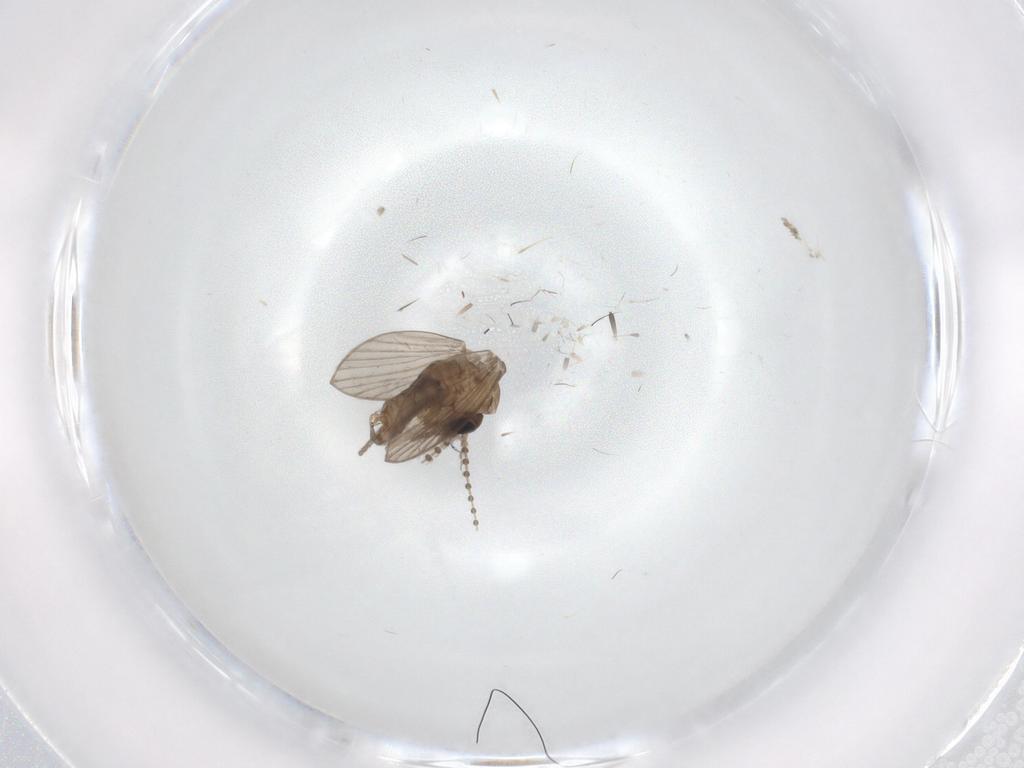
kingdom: Animalia
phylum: Arthropoda
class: Insecta
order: Diptera
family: Psychodidae
